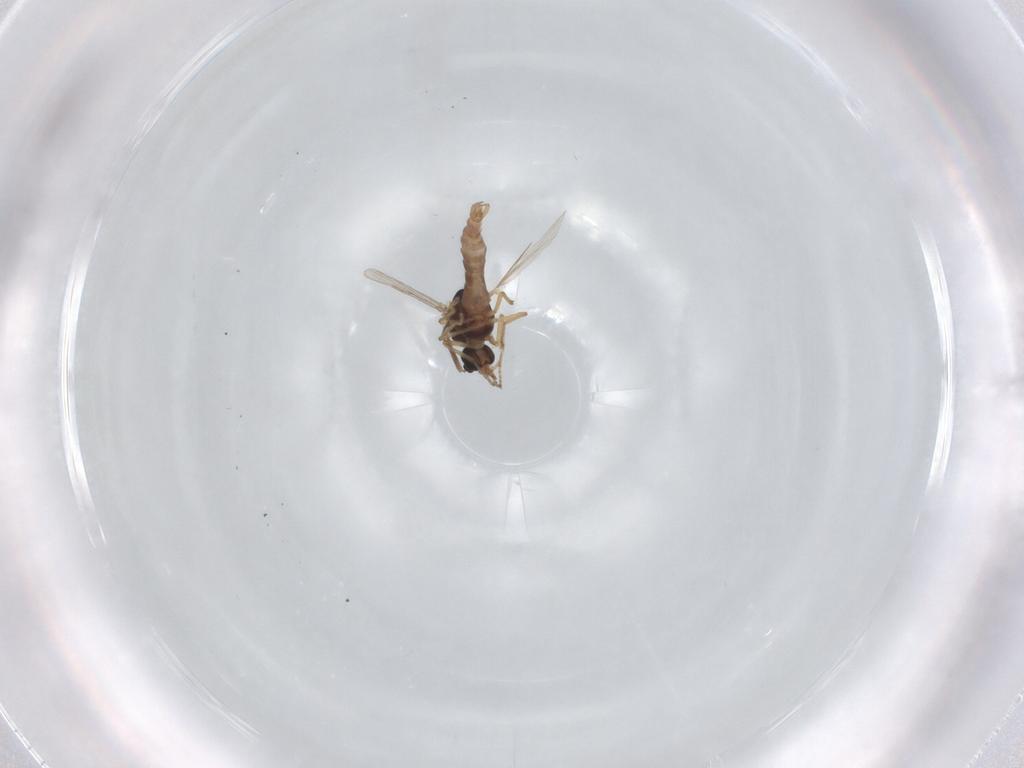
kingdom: Animalia
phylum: Arthropoda
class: Insecta
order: Diptera
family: Ceratopogonidae
